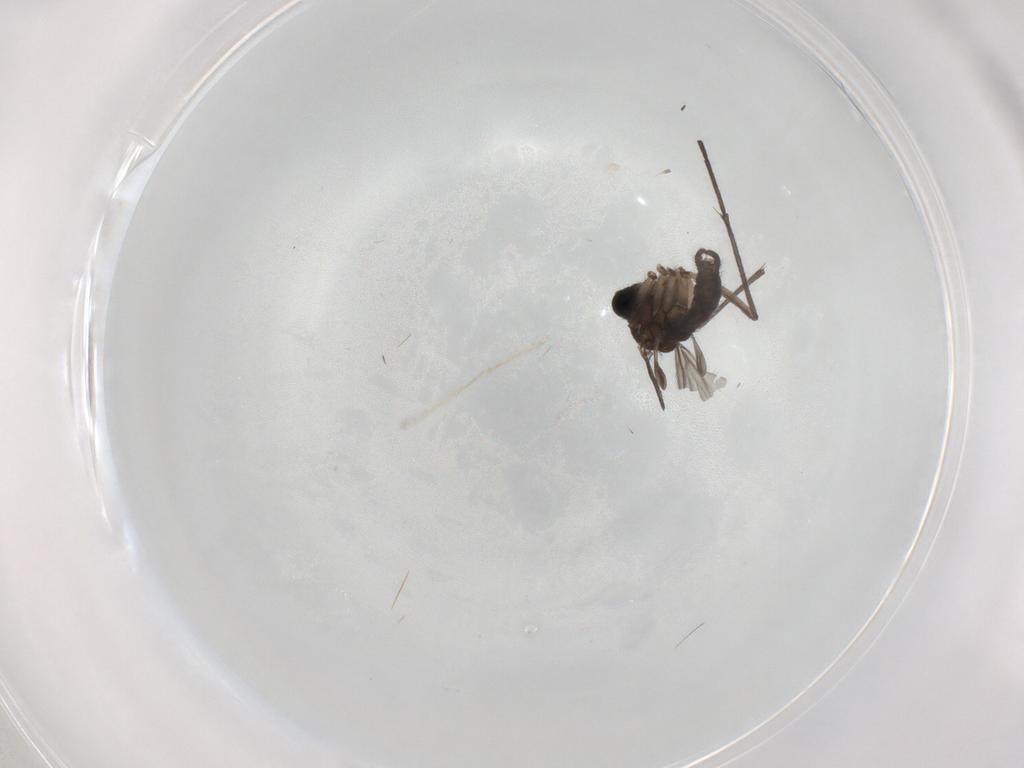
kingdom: Animalia
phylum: Arthropoda
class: Insecta
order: Diptera
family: Sciaridae
